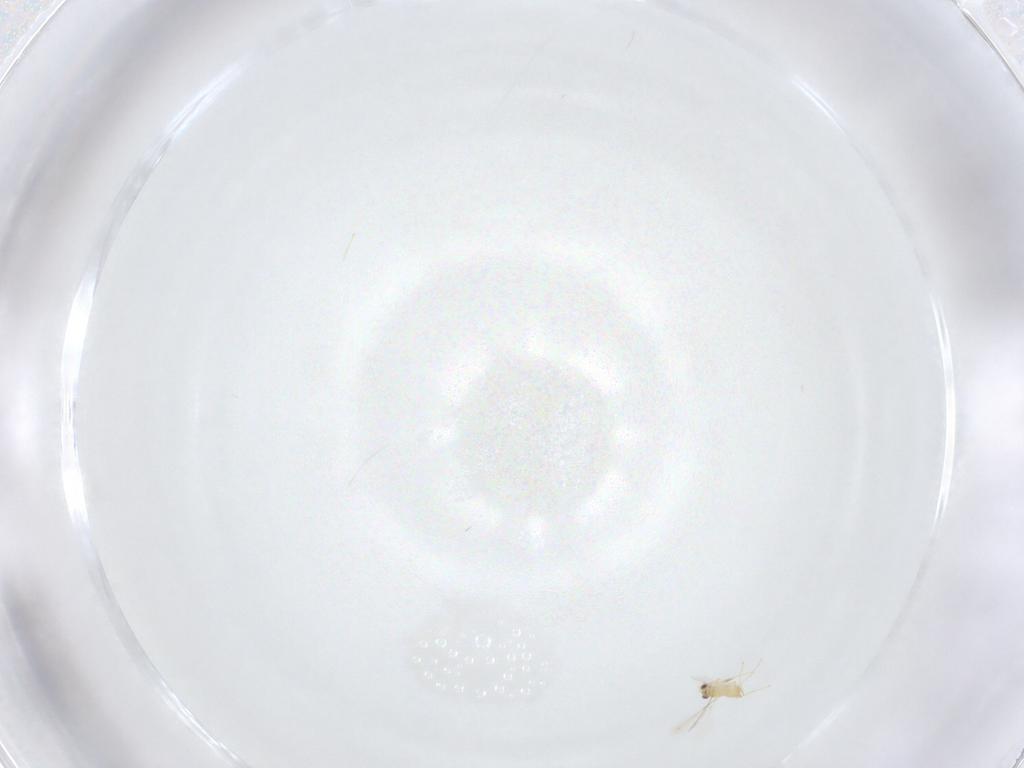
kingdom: Animalia
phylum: Arthropoda
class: Insecta
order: Hymenoptera
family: Mymaridae
